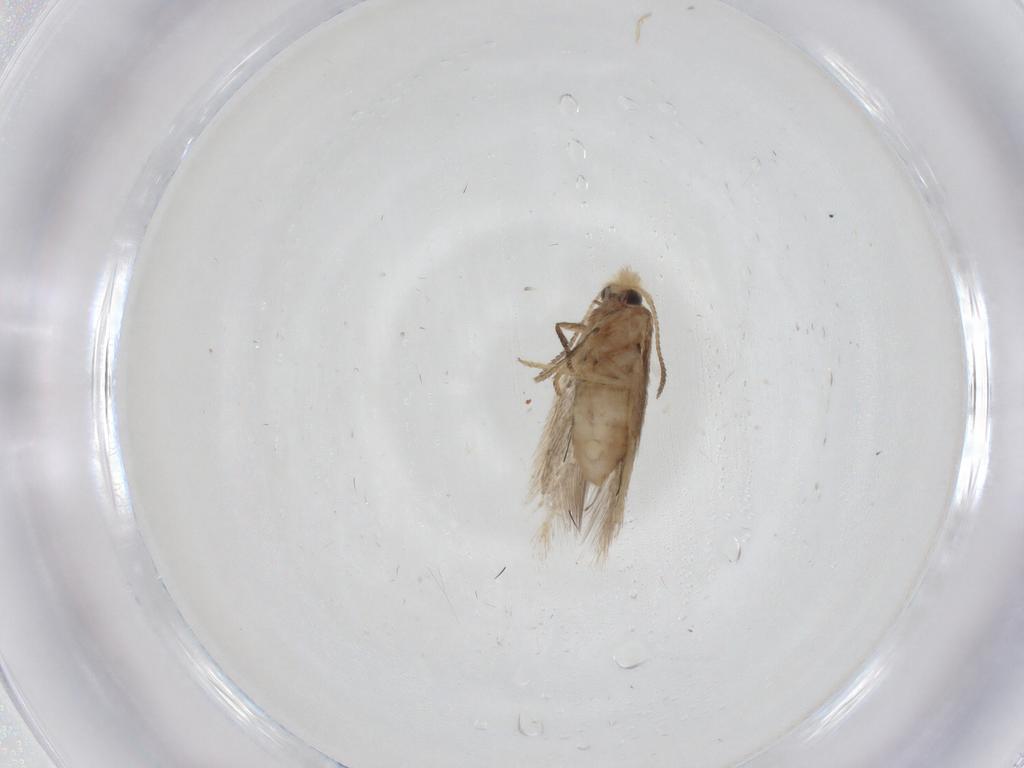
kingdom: Animalia
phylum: Arthropoda
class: Insecta
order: Lepidoptera
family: Nepticulidae
